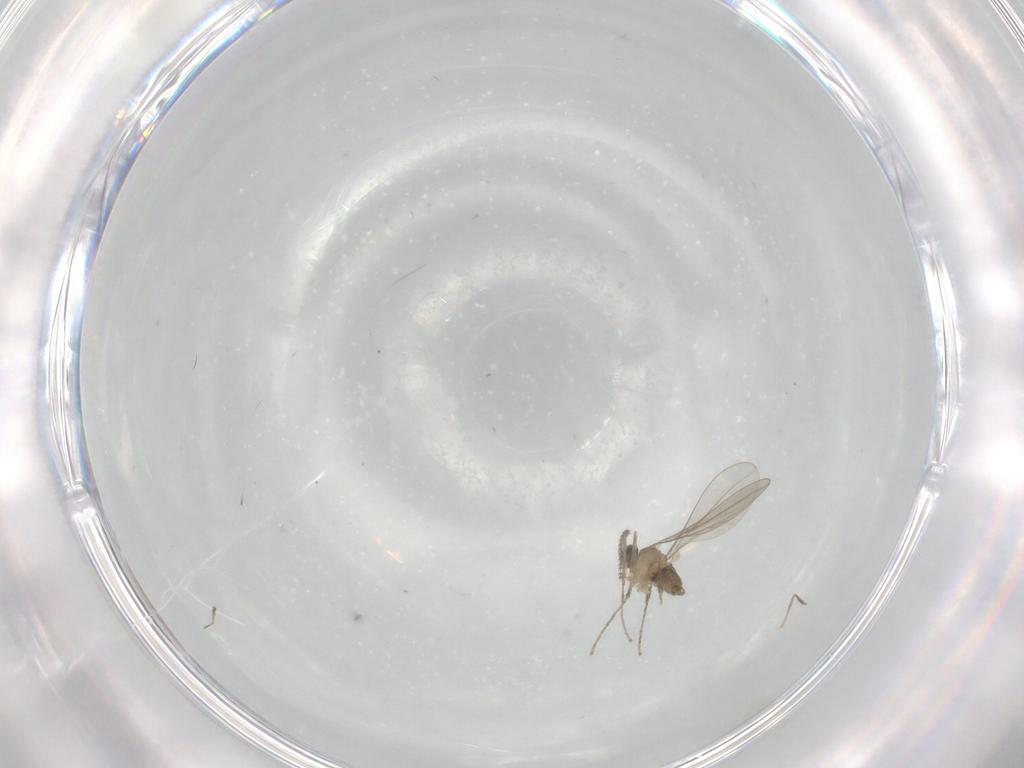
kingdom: Animalia
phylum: Arthropoda
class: Insecta
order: Diptera
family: Cecidomyiidae
